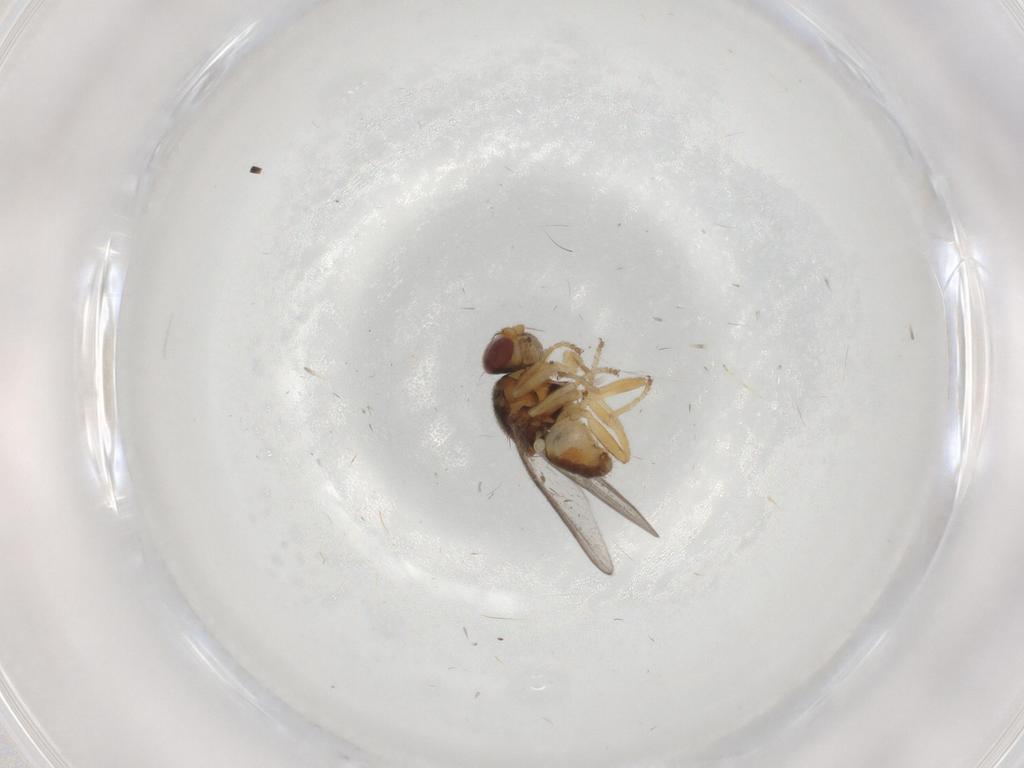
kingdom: Animalia
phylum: Arthropoda
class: Insecta
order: Diptera
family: Chloropidae
